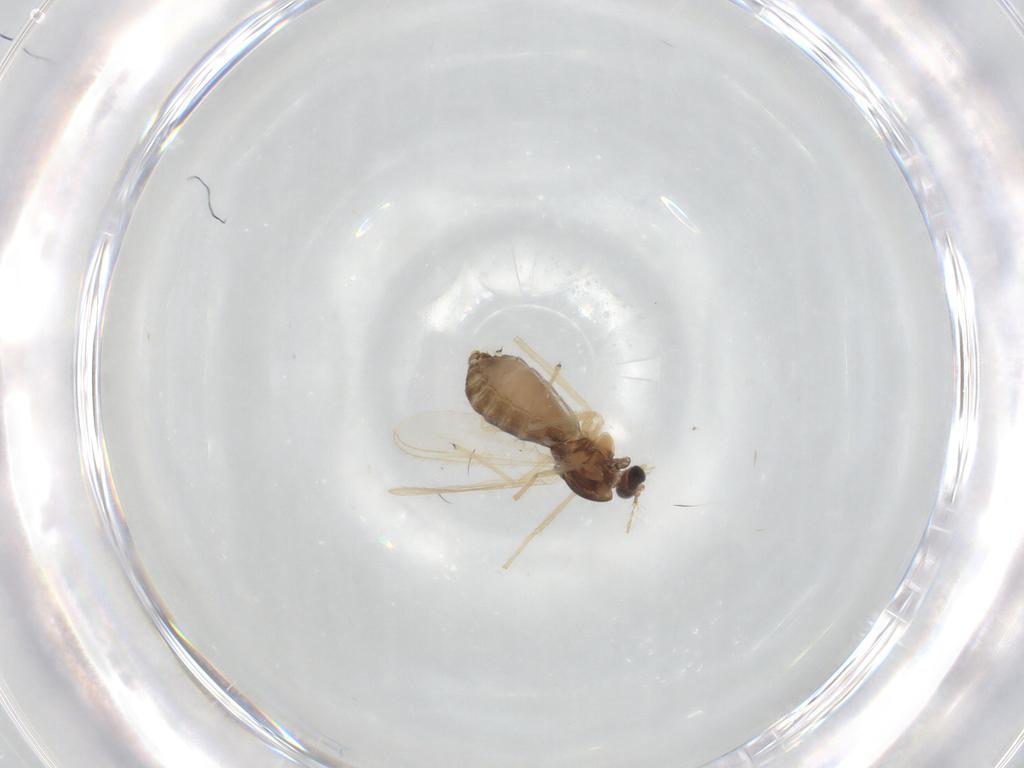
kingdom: Animalia
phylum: Arthropoda
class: Insecta
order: Diptera
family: Chironomidae
